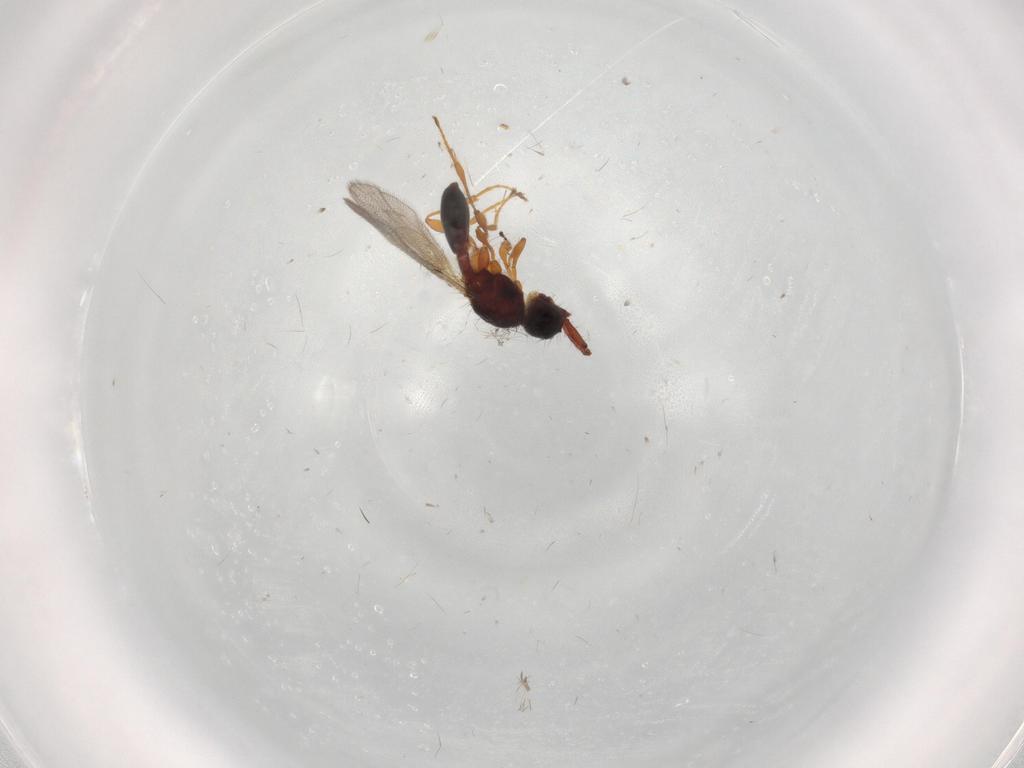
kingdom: Animalia
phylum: Arthropoda
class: Insecta
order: Hymenoptera
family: Diapriidae
